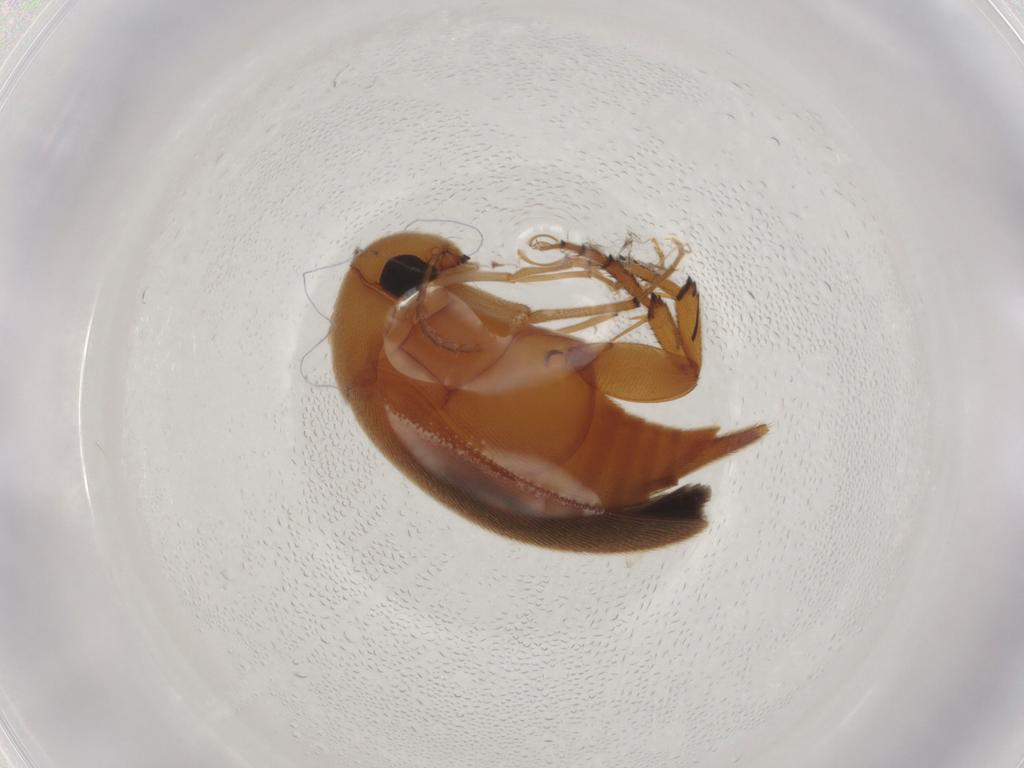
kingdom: Animalia
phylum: Arthropoda
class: Insecta
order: Coleoptera
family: Mordellidae
